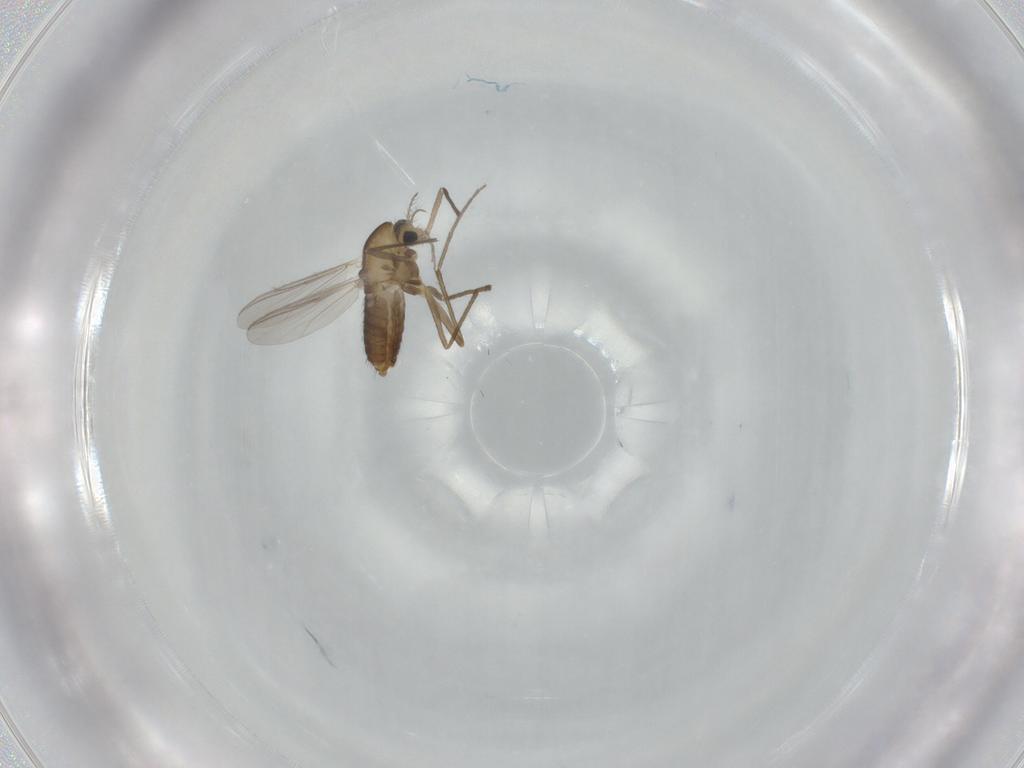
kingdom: Animalia
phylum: Arthropoda
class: Insecta
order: Diptera
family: Chironomidae
